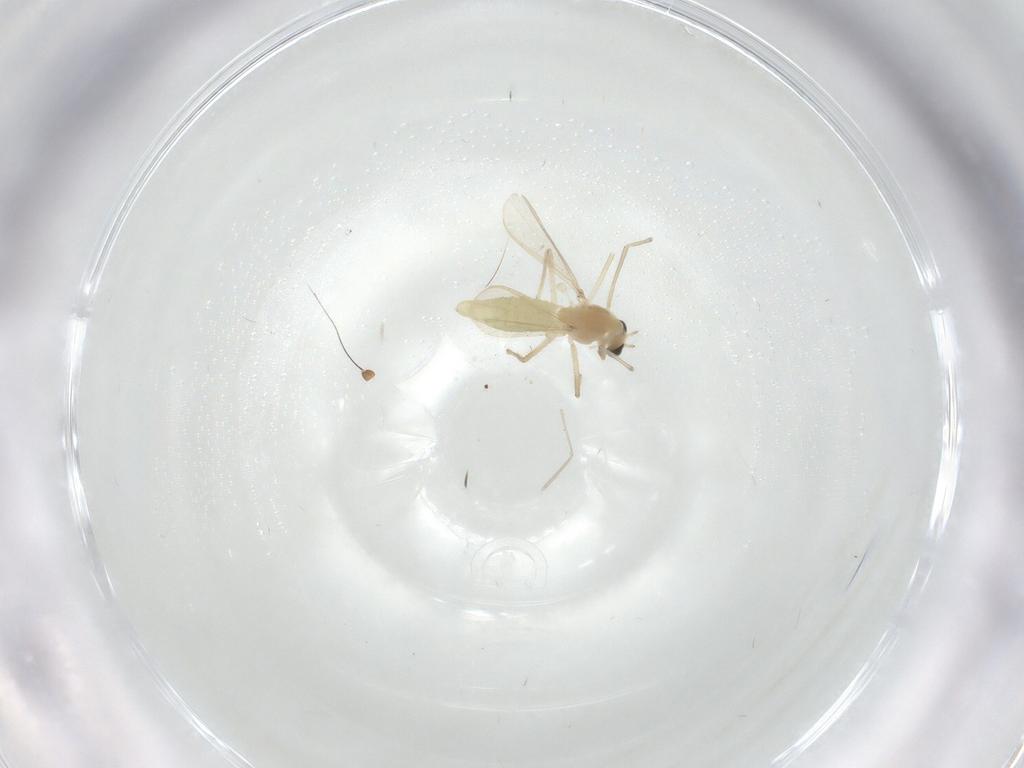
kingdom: Animalia
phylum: Arthropoda
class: Insecta
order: Diptera
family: Chironomidae
